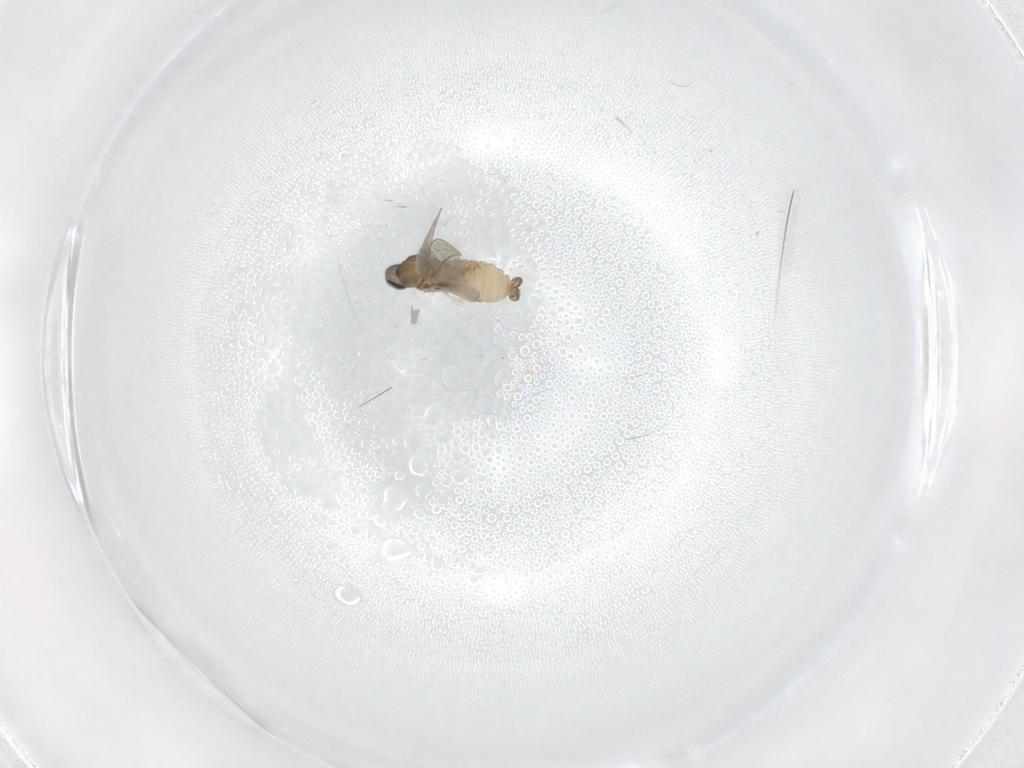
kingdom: Animalia
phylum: Arthropoda
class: Insecta
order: Diptera
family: Cecidomyiidae
